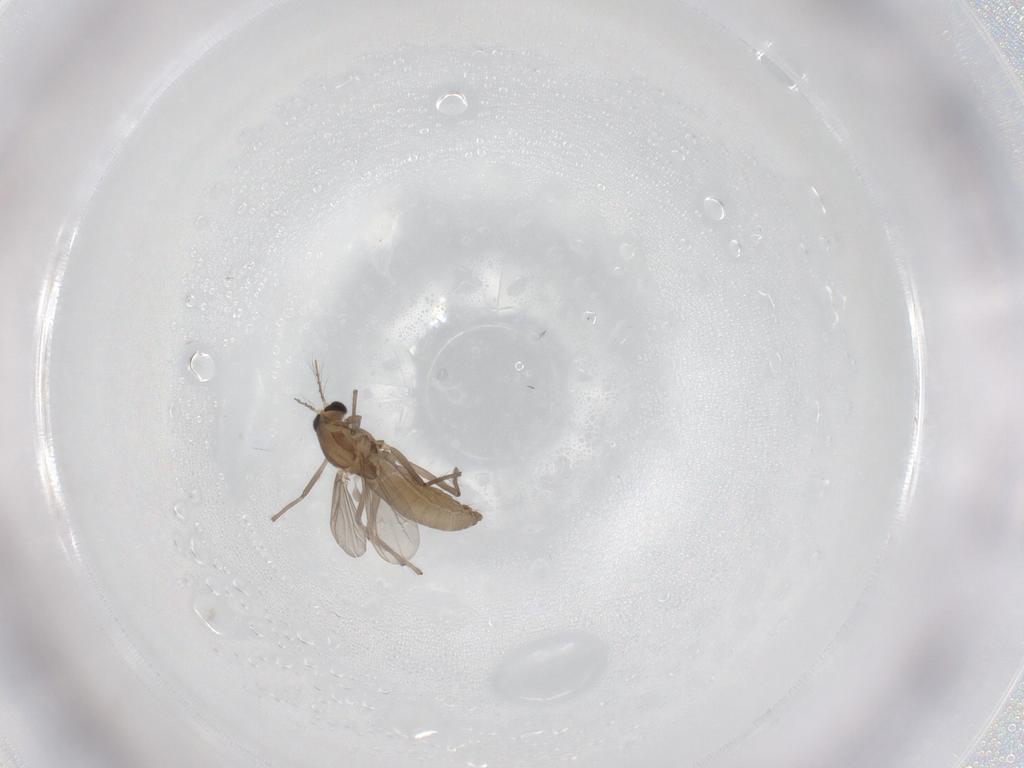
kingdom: Animalia
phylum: Arthropoda
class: Insecta
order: Diptera
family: Chironomidae
